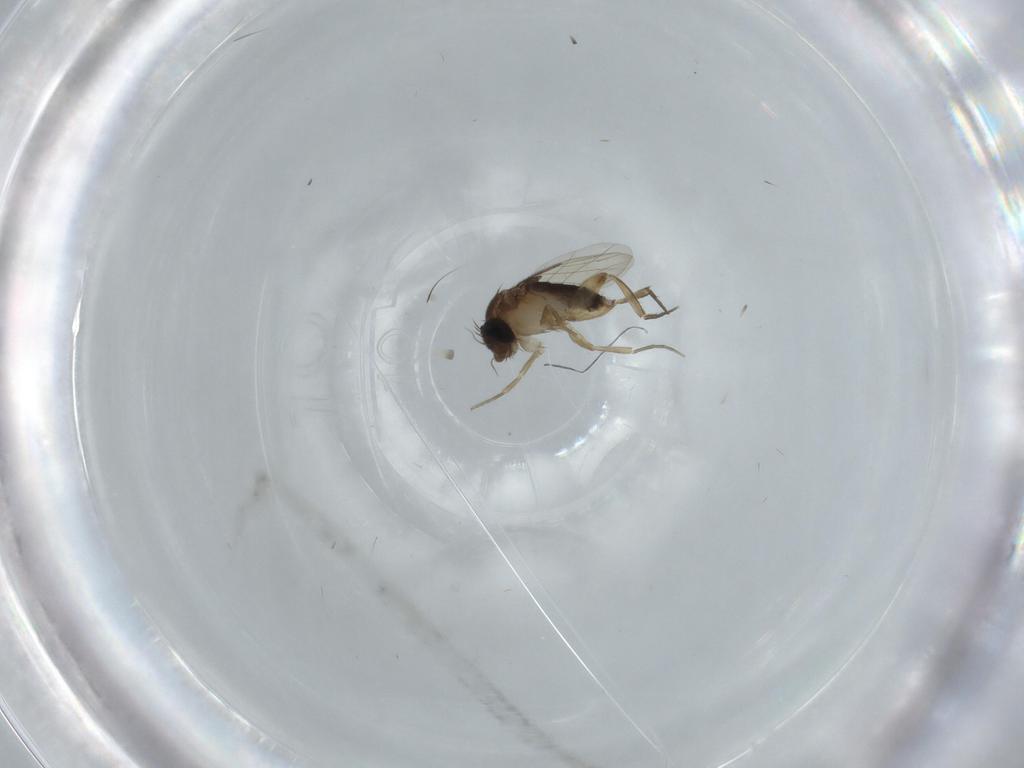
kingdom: Animalia
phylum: Arthropoda
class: Insecta
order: Diptera
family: Phoridae
